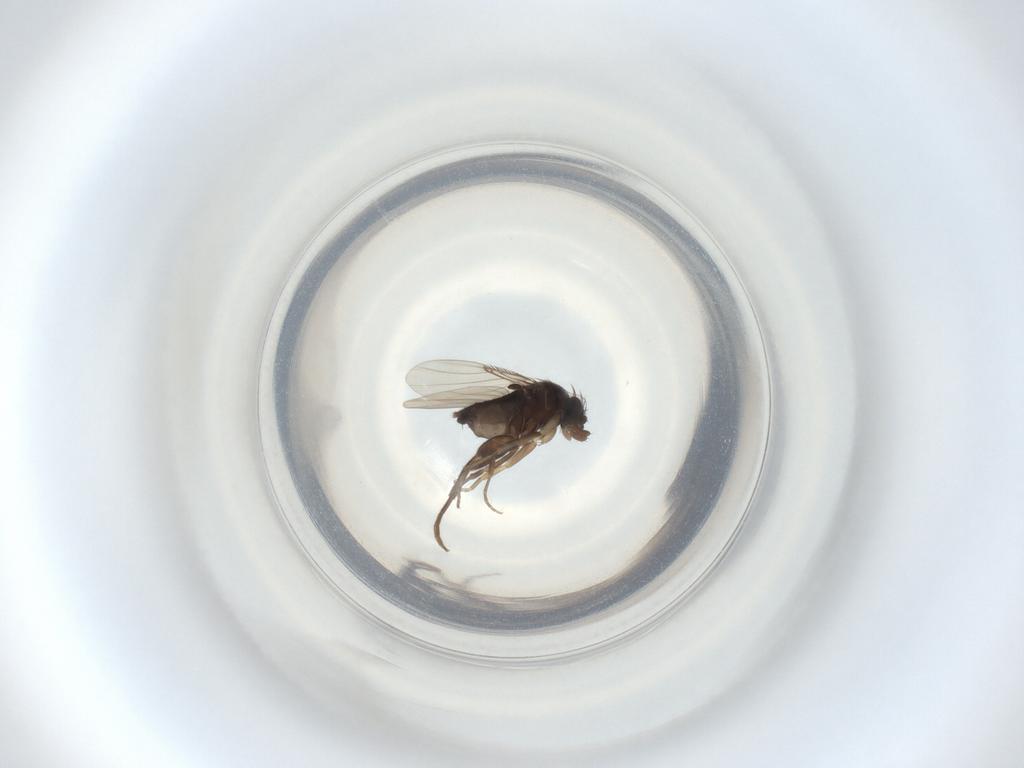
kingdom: Animalia
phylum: Arthropoda
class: Insecta
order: Diptera
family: Phoridae
